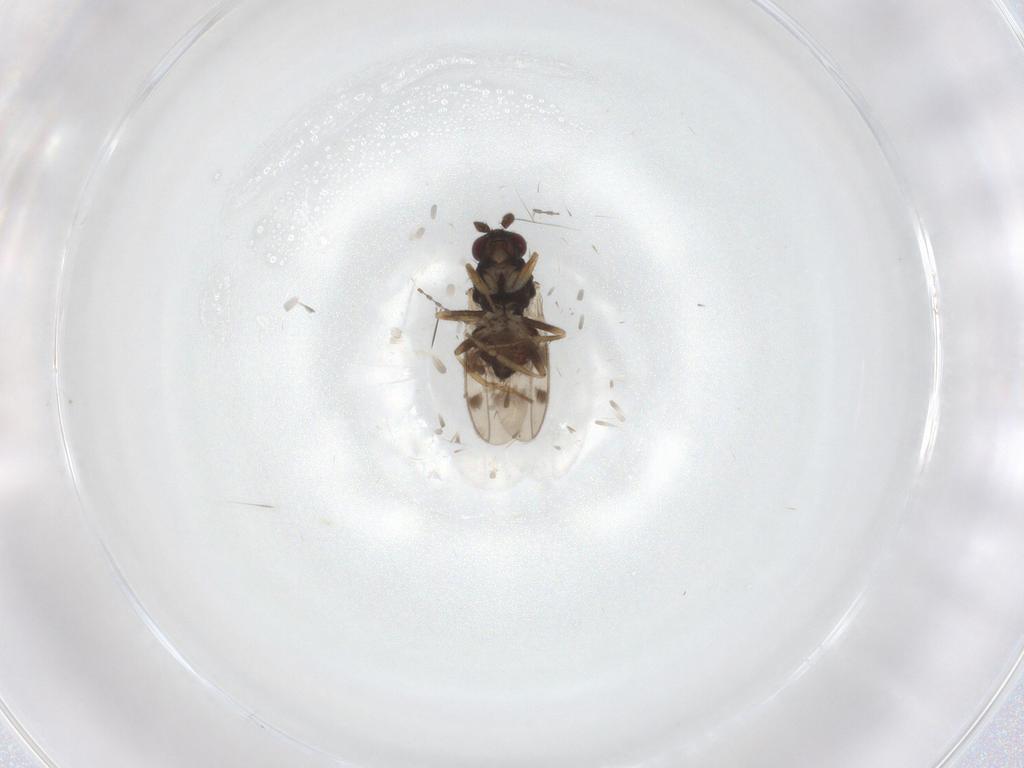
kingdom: Animalia
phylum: Arthropoda
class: Insecta
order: Diptera
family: Sphaeroceridae
